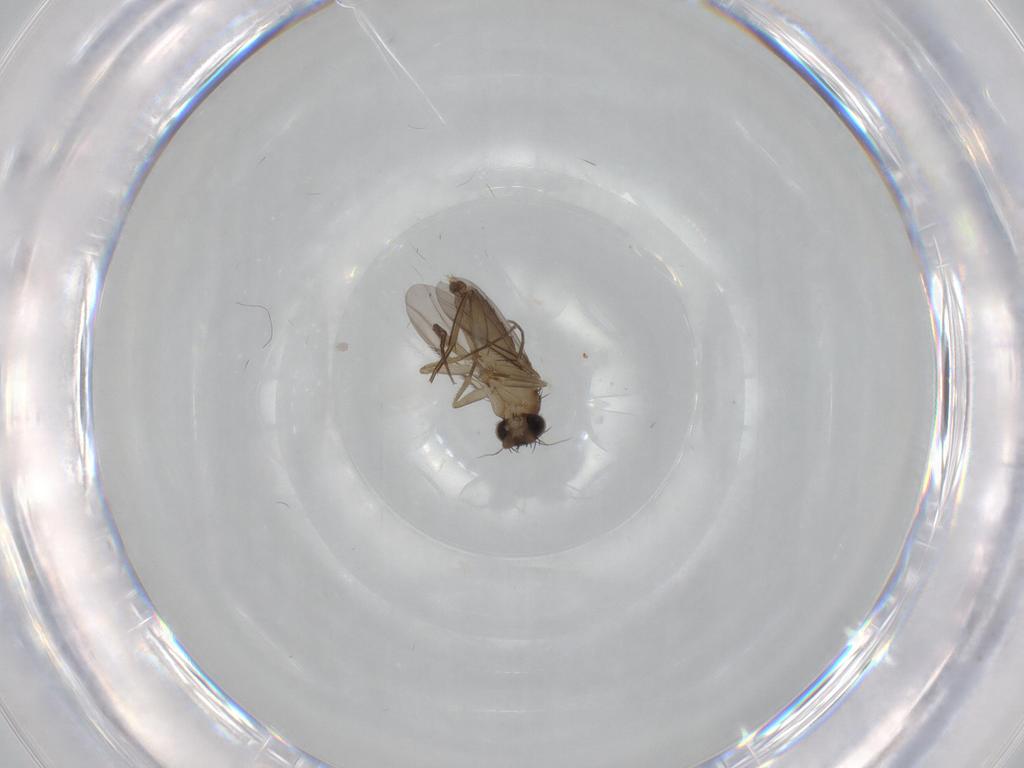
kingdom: Animalia
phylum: Arthropoda
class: Insecta
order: Diptera
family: Phoridae
